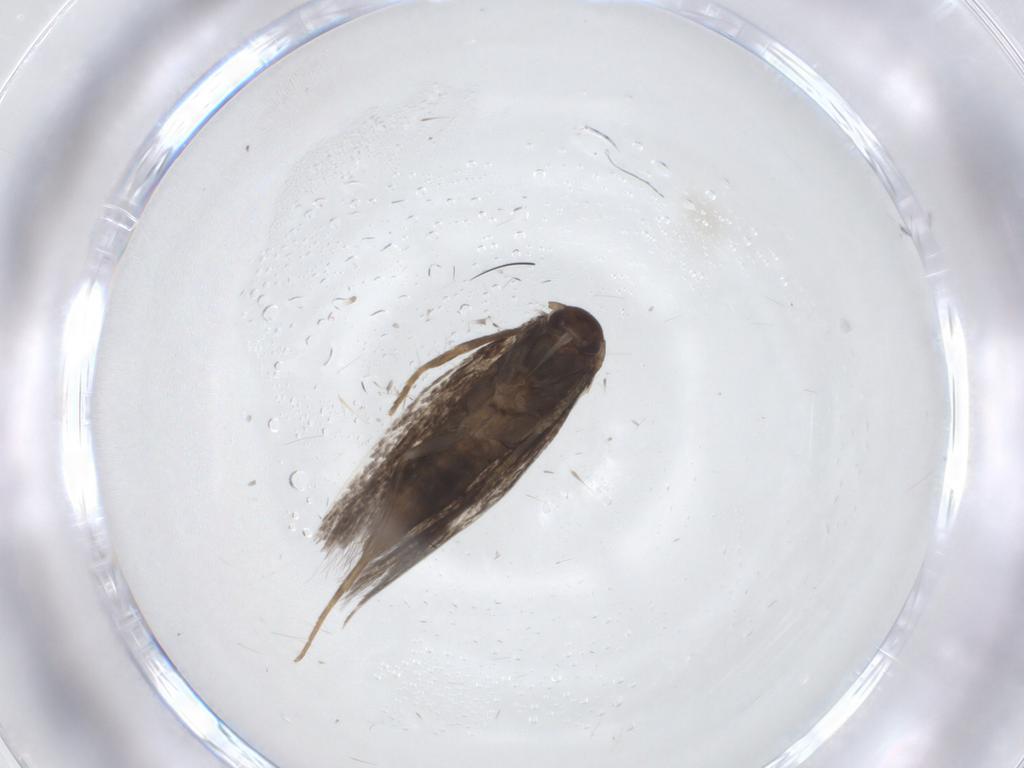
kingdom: Animalia
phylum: Arthropoda
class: Insecta
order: Lepidoptera
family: Elachistidae
